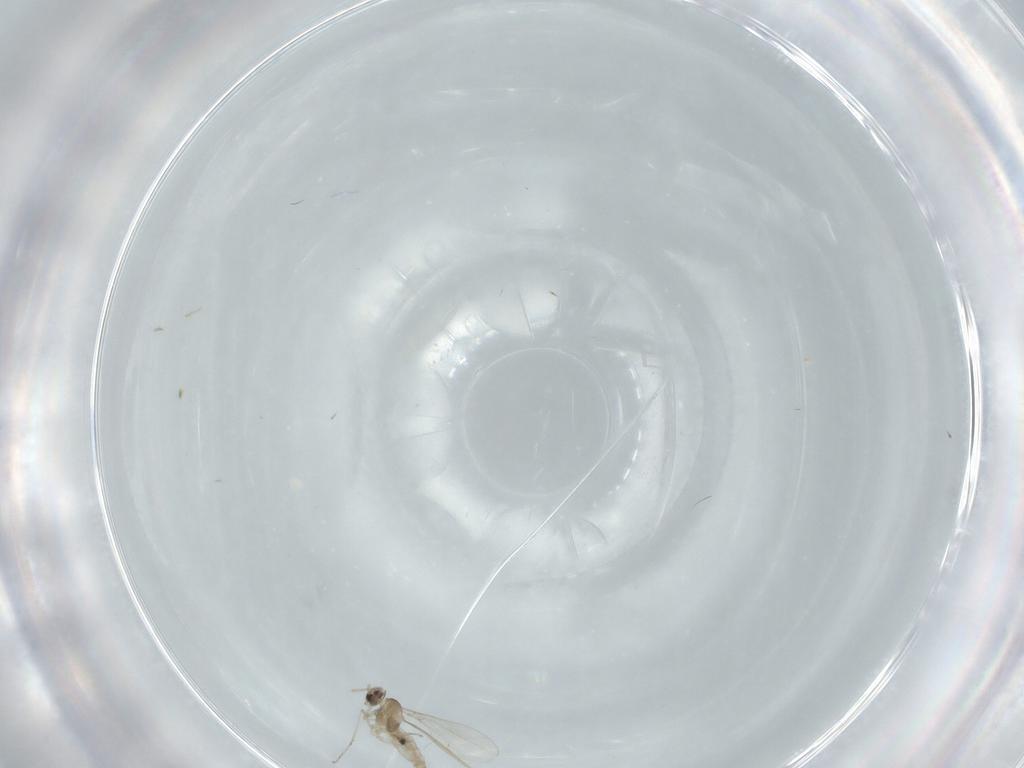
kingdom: Animalia
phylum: Arthropoda
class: Insecta
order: Diptera
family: Cecidomyiidae
